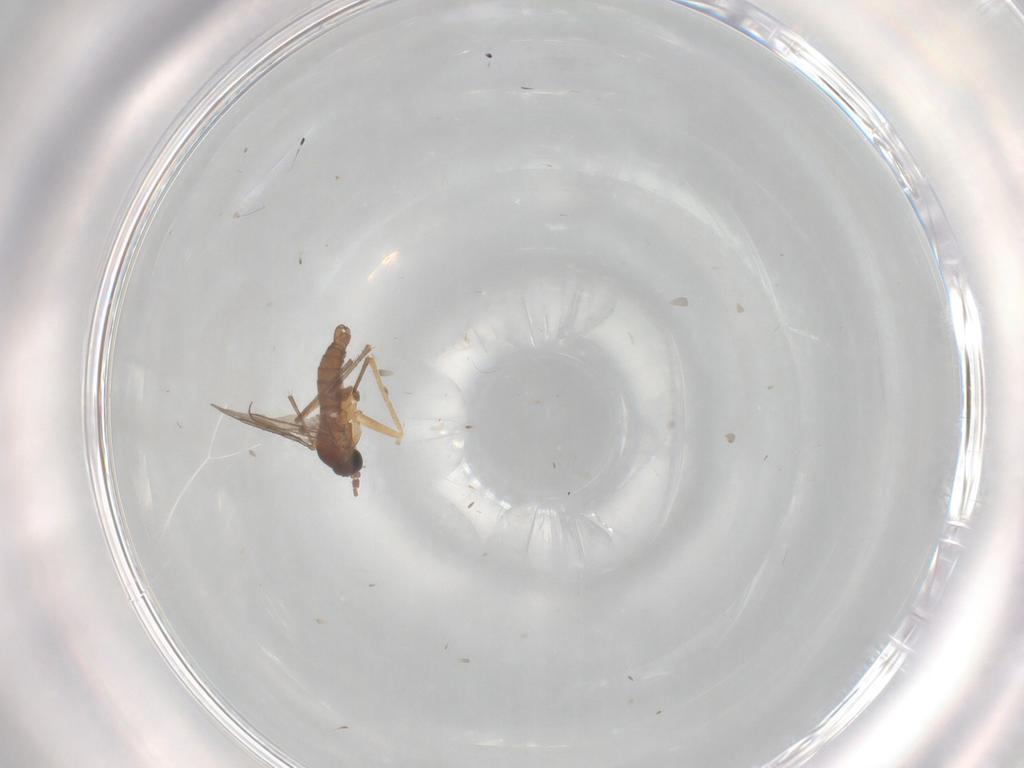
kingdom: Animalia
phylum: Arthropoda
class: Insecta
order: Diptera
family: Sciaridae
